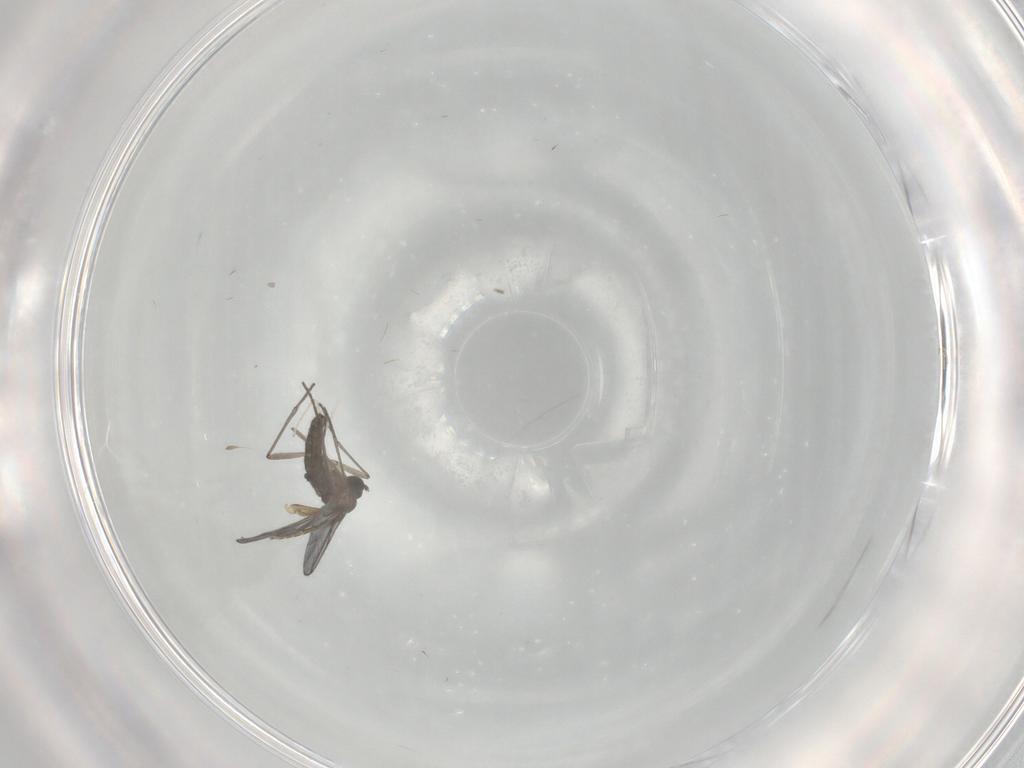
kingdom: Animalia
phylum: Arthropoda
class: Insecta
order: Diptera
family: Phoridae
